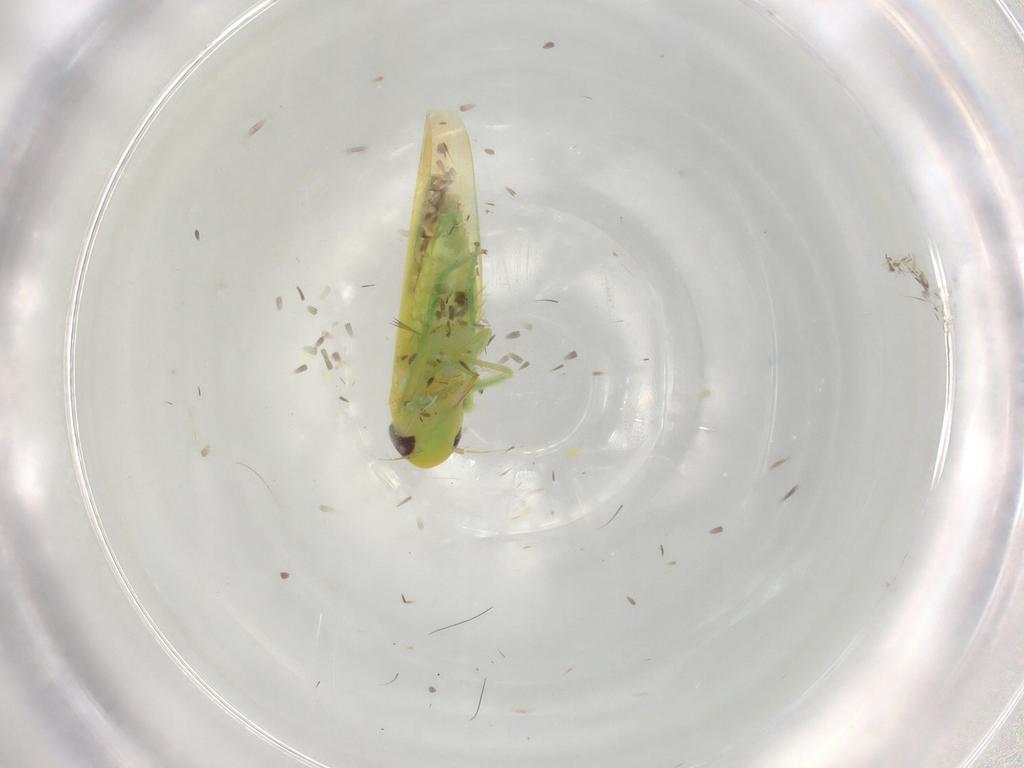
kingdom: Animalia
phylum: Arthropoda
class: Insecta
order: Hemiptera
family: Cicadellidae
